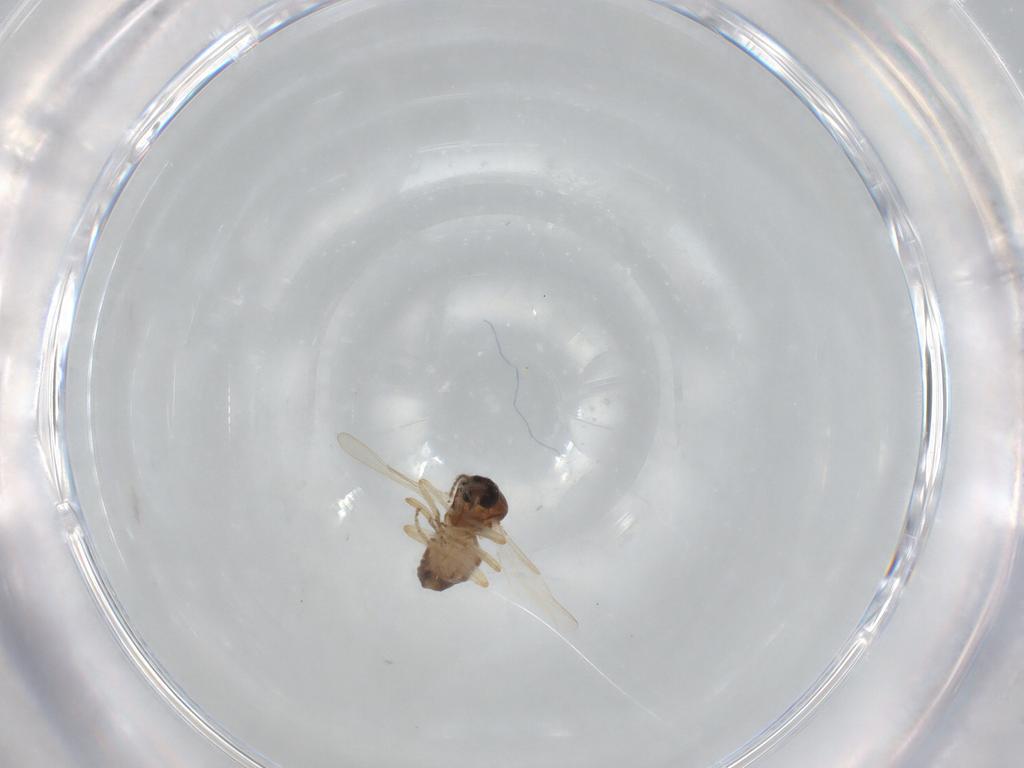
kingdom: Animalia
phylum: Arthropoda
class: Insecta
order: Diptera
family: Ceratopogonidae
